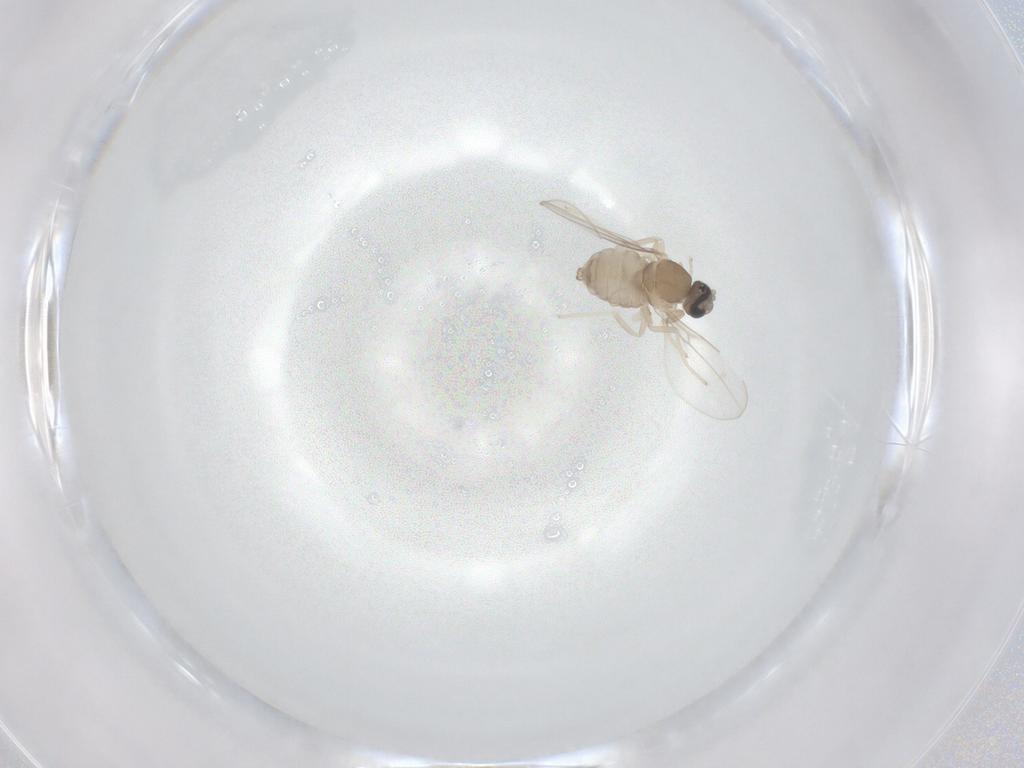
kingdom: Animalia
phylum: Arthropoda
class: Insecta
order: Diptera
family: Cecidomyiidae
